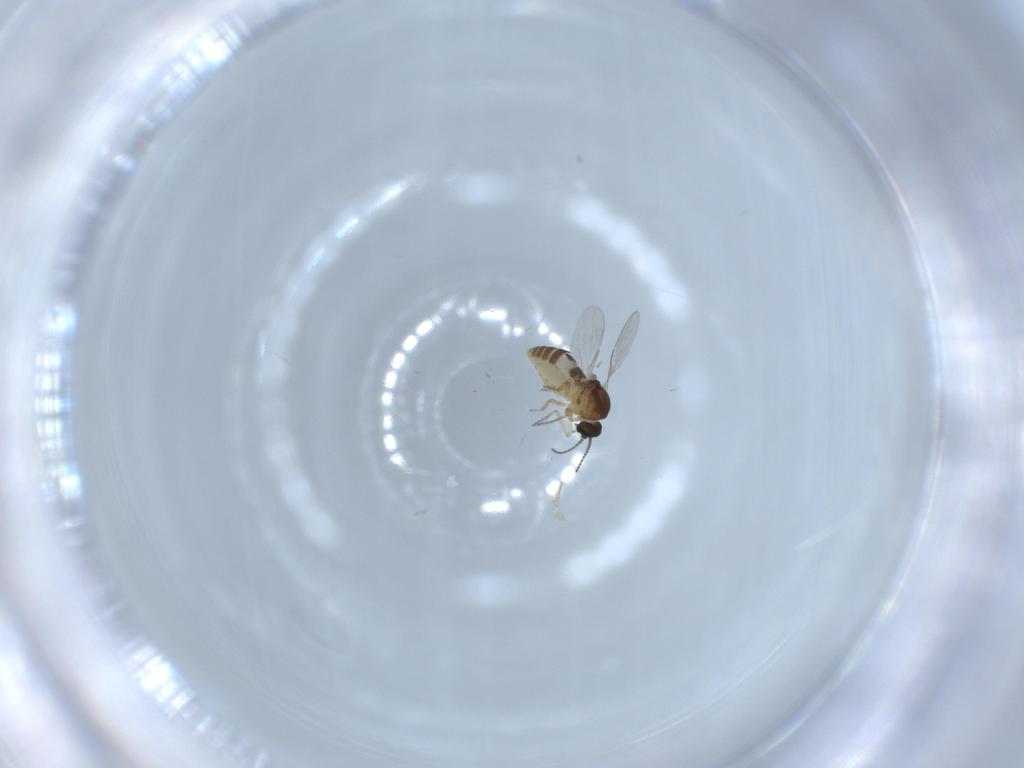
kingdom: Animalia
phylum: Arthropoda
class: Insecta
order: Diptera
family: Ceratopogonidae
